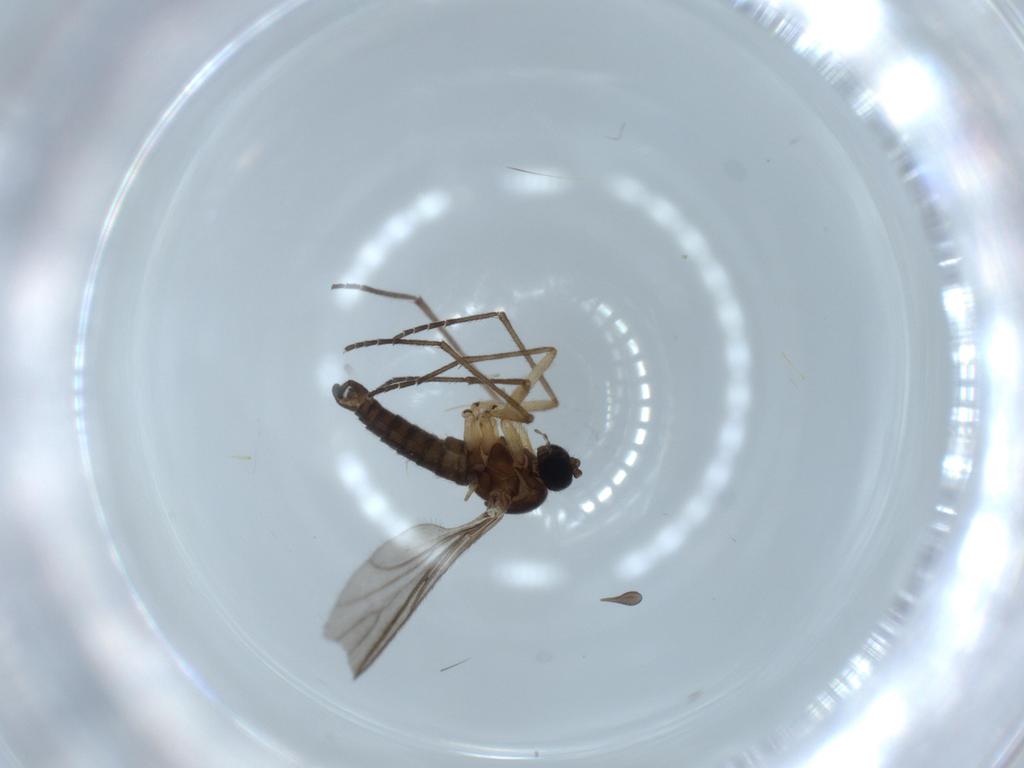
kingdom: Animalia
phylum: Arthropoda
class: Insecta
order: Diptera
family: Sciaridae
